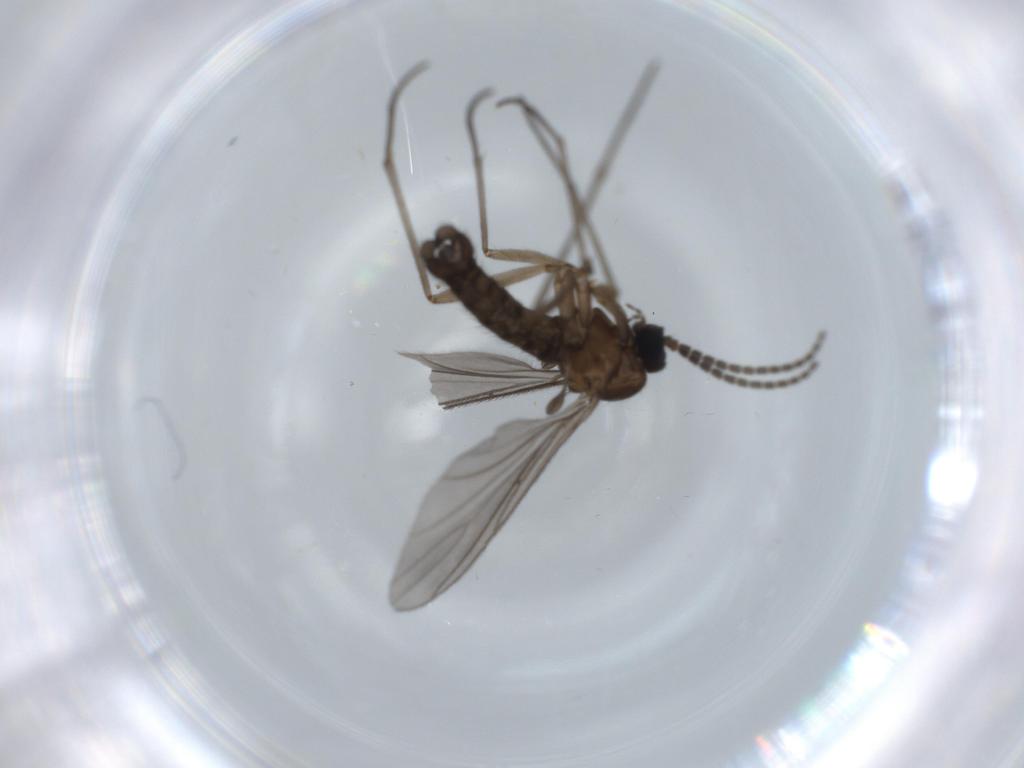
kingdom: Animalia
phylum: Arthropoda
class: Insecta
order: Diptera
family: Sciaridae
